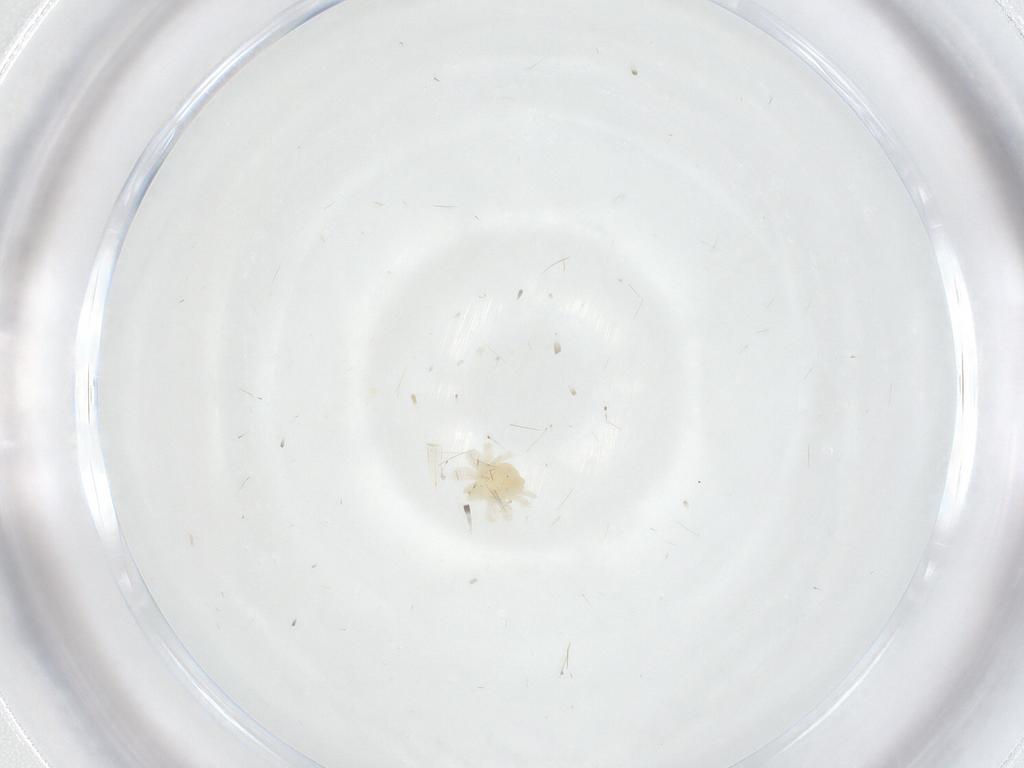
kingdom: Animalia
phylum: Arthropoda
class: Arachnida
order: Trombidiformes
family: Anystidae
